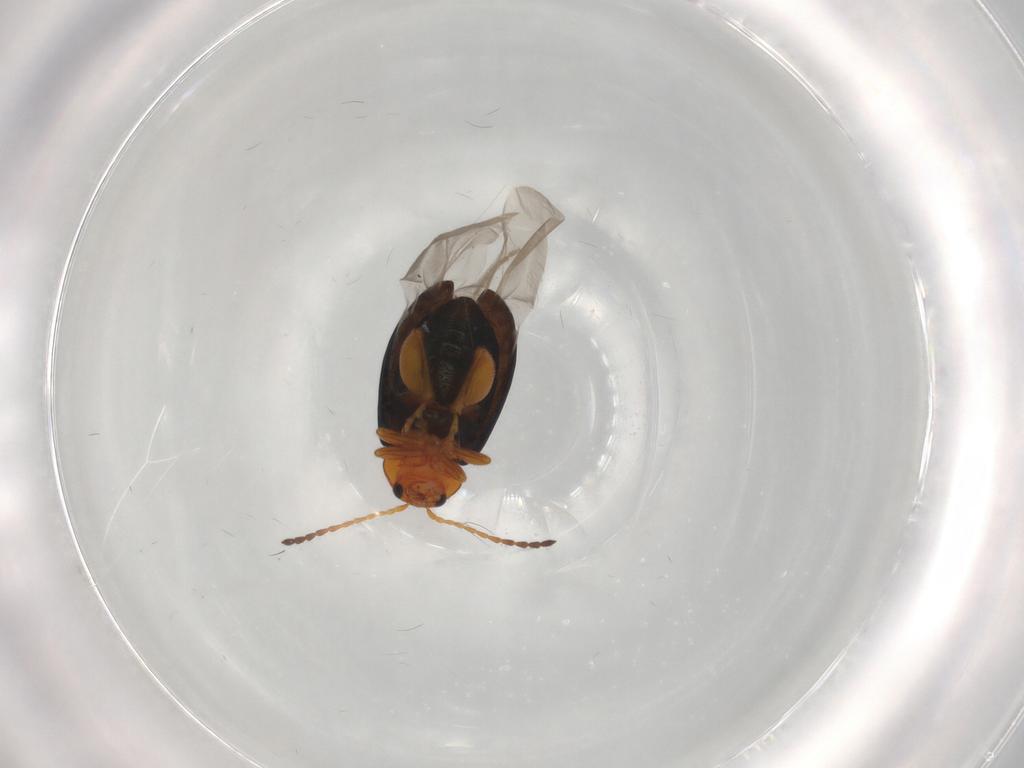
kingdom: Animalia
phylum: Arthropoda
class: Insecta
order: Coleoptera
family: Chrysomelidae
